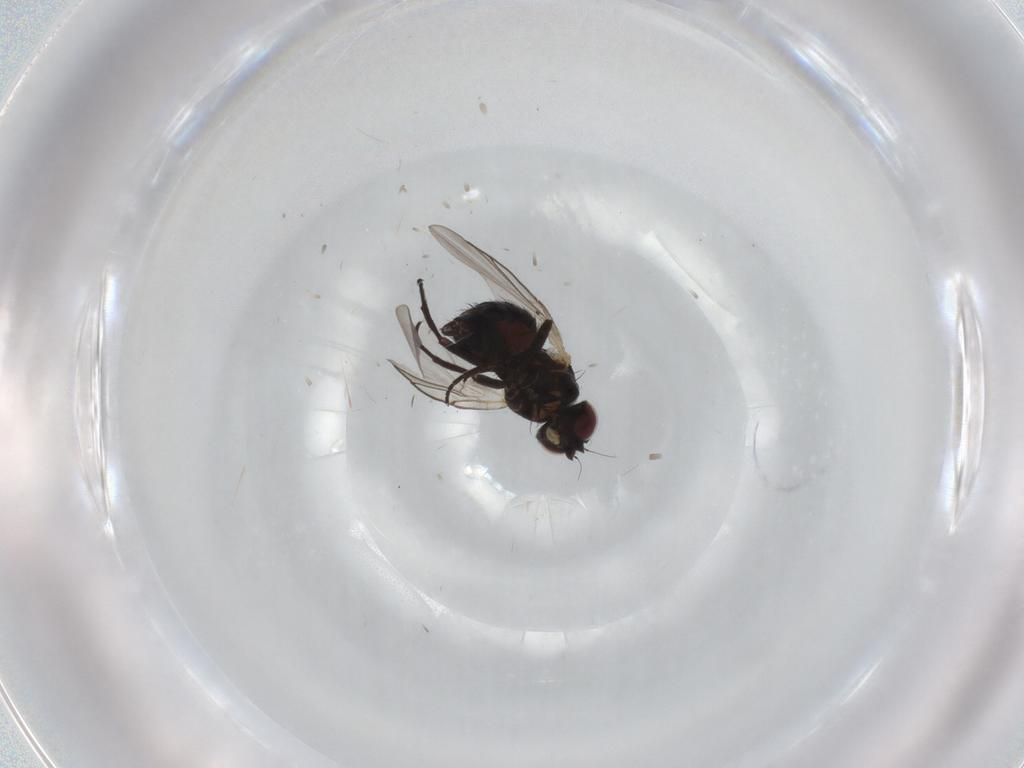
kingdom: Animalia
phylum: Arthropoda
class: Insecta
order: Diptera
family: Agromyzidae
